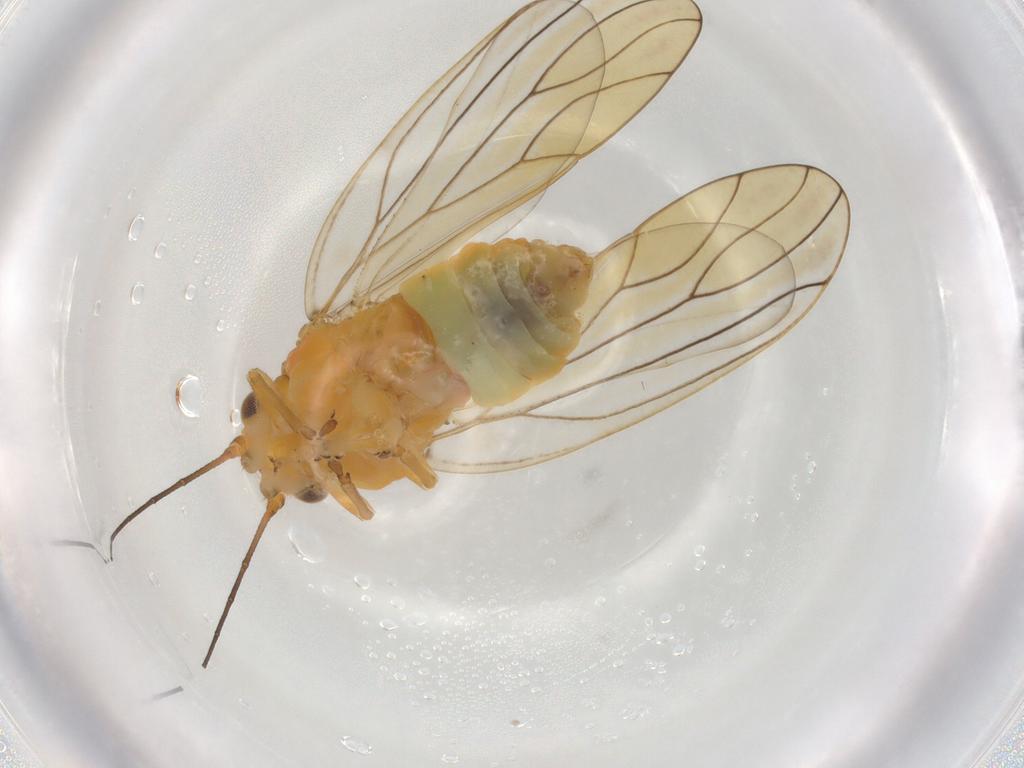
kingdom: Animalia
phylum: Arthropoda
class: Insecta
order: Hemiptera
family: Aphalaridae
